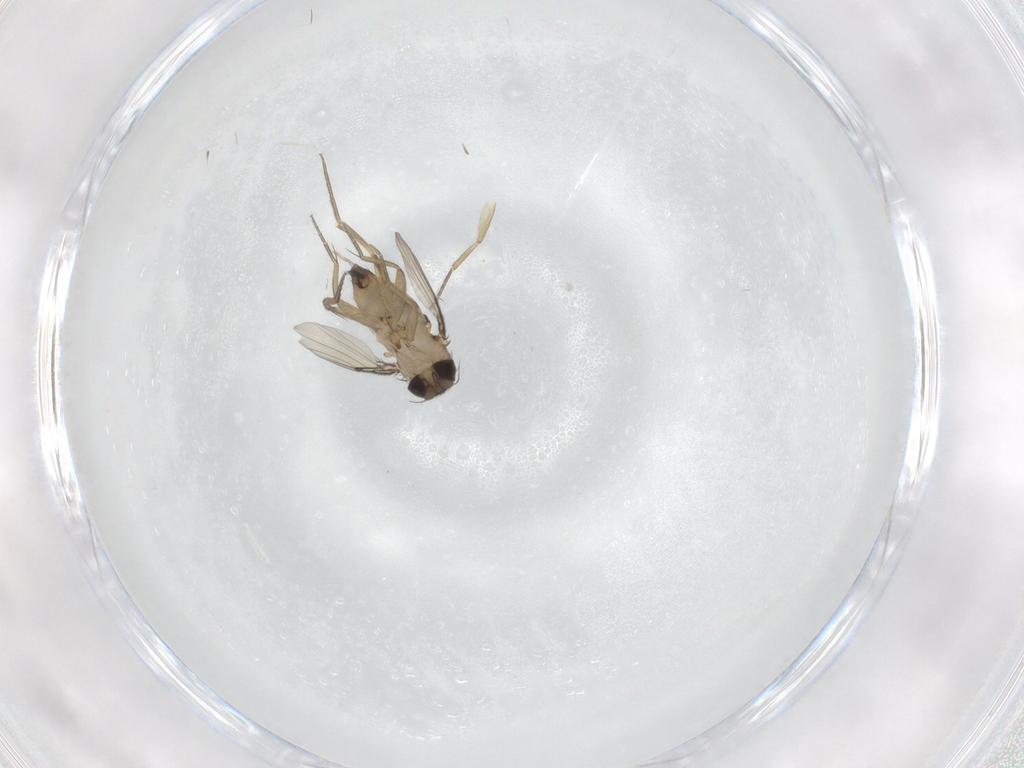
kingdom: Animalia
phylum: Arthropoda
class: Insecta
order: Diptera
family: Phoridae
